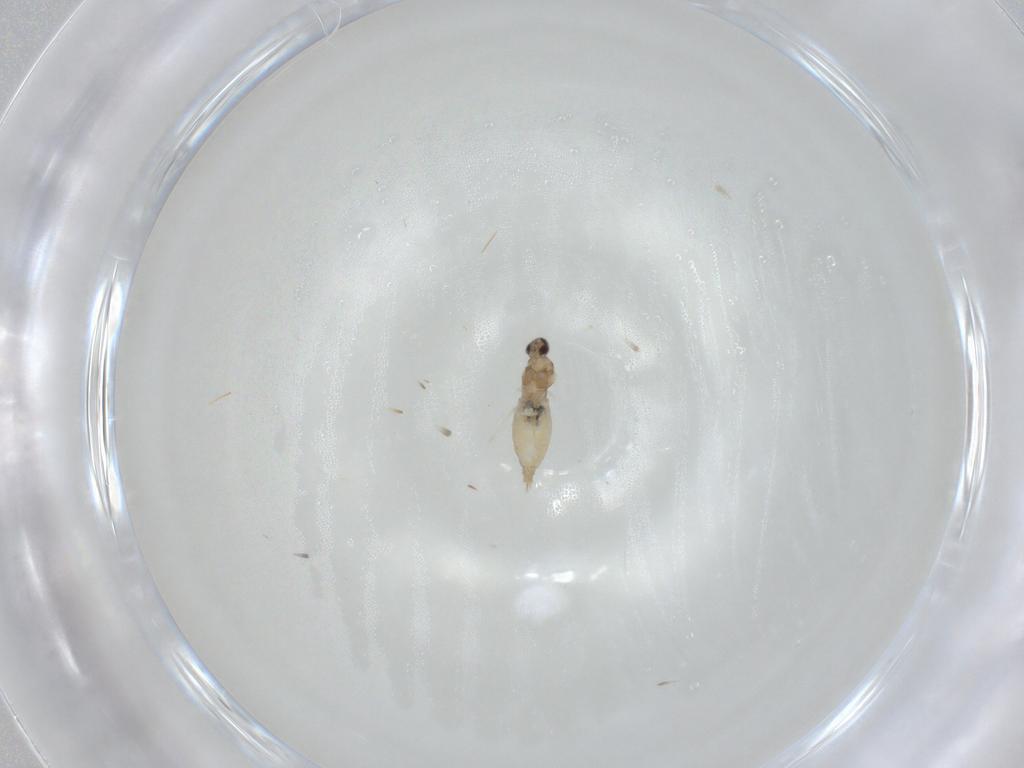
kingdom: Animalia
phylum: Arthropoda
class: Insecta
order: Diptera
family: Cecidomyiidae
